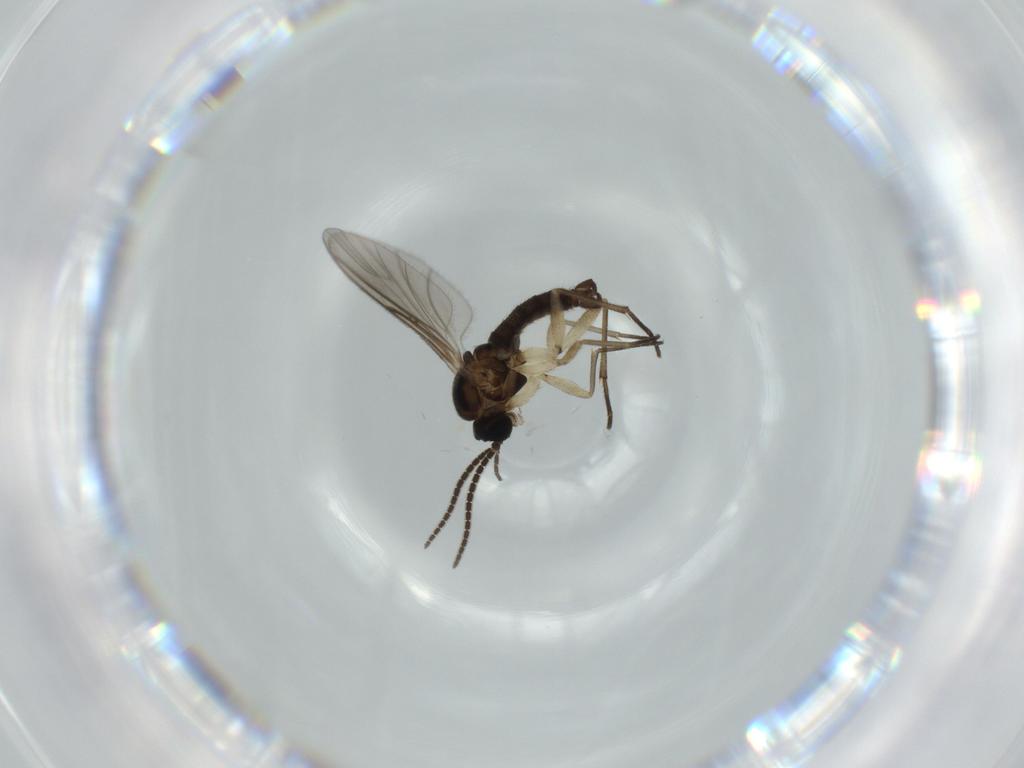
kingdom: Animalia
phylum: Arthropoda
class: Insecta
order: Diptera
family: Sciaridae
